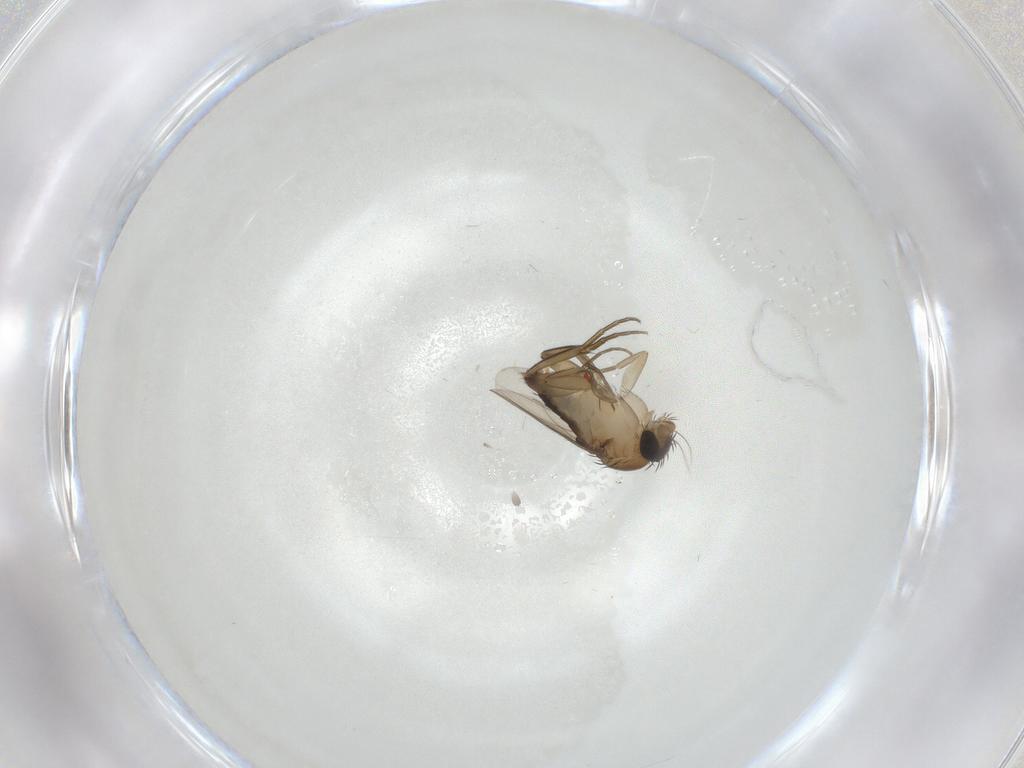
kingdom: Animalia
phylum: Arthropoda
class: Insecta
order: Diptera
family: Phoridae
